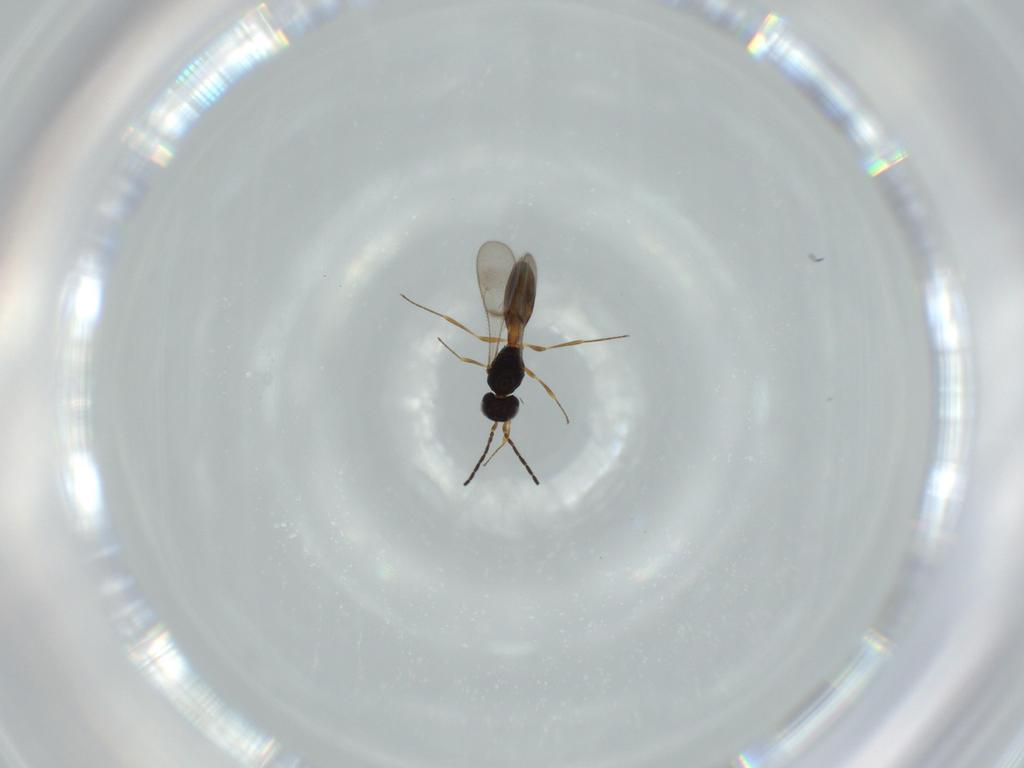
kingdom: Animalia
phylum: Arthropoda
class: Insecta
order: Hymenoptera
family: Scelionidae
